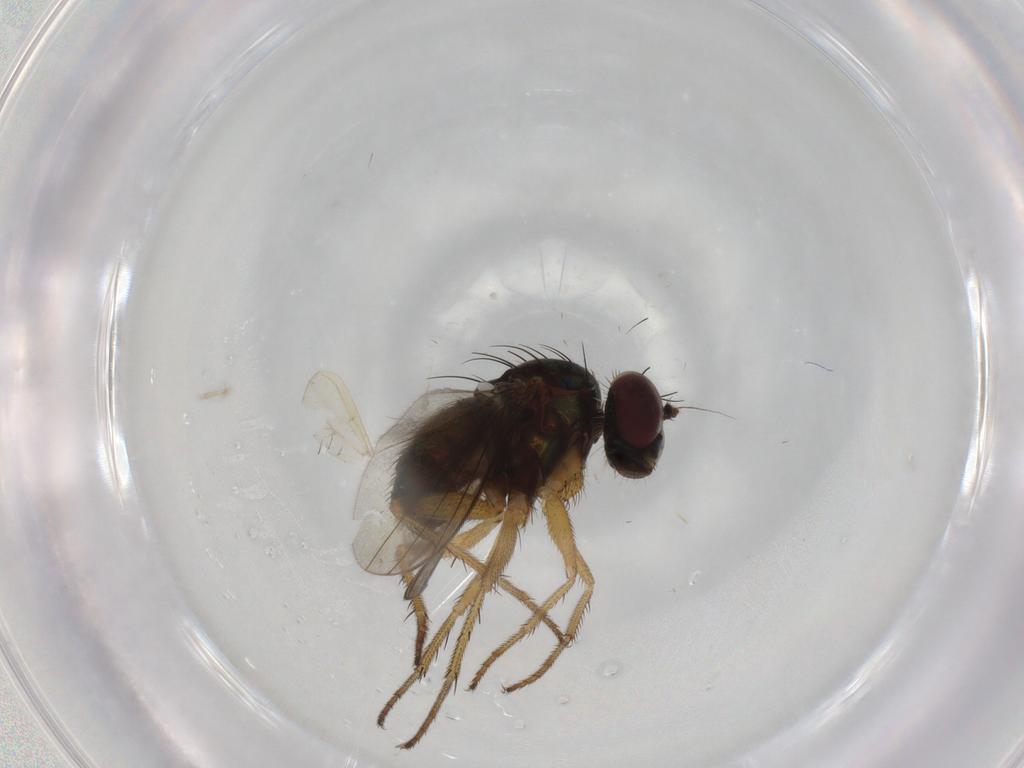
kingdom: Animalia
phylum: Arthropoda
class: Insecta
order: Diptera
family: Dolichopodidae
